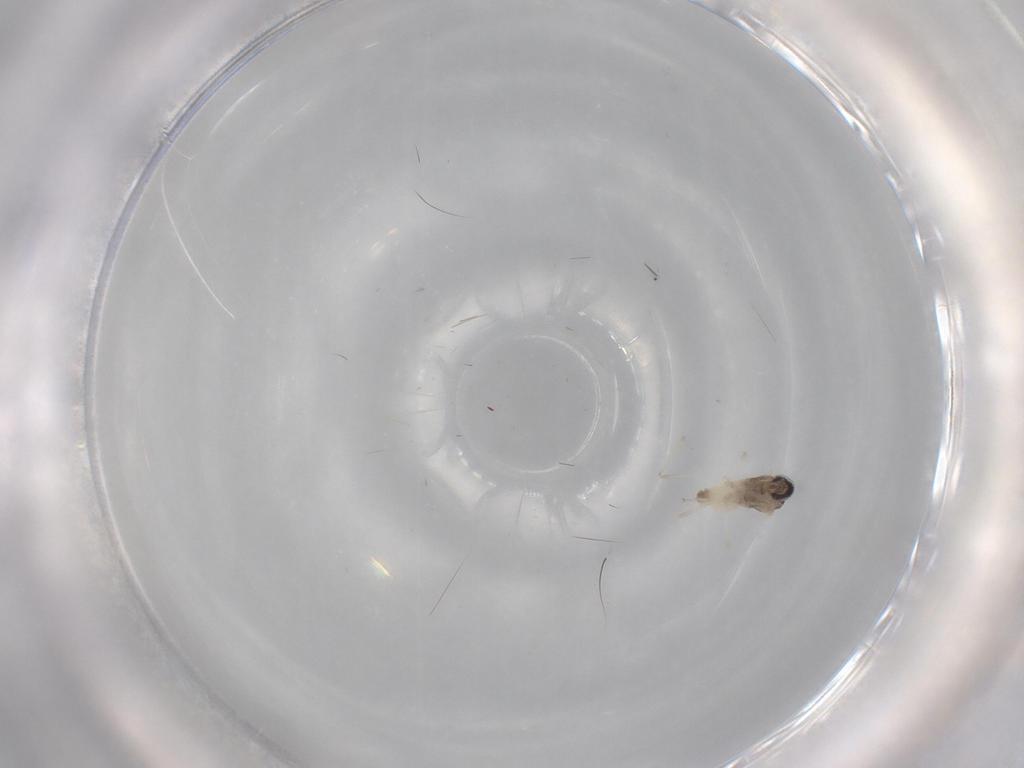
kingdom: Animalia
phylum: Arthropoda
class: Insecta
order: Diptera
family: Cecidomyiidae
